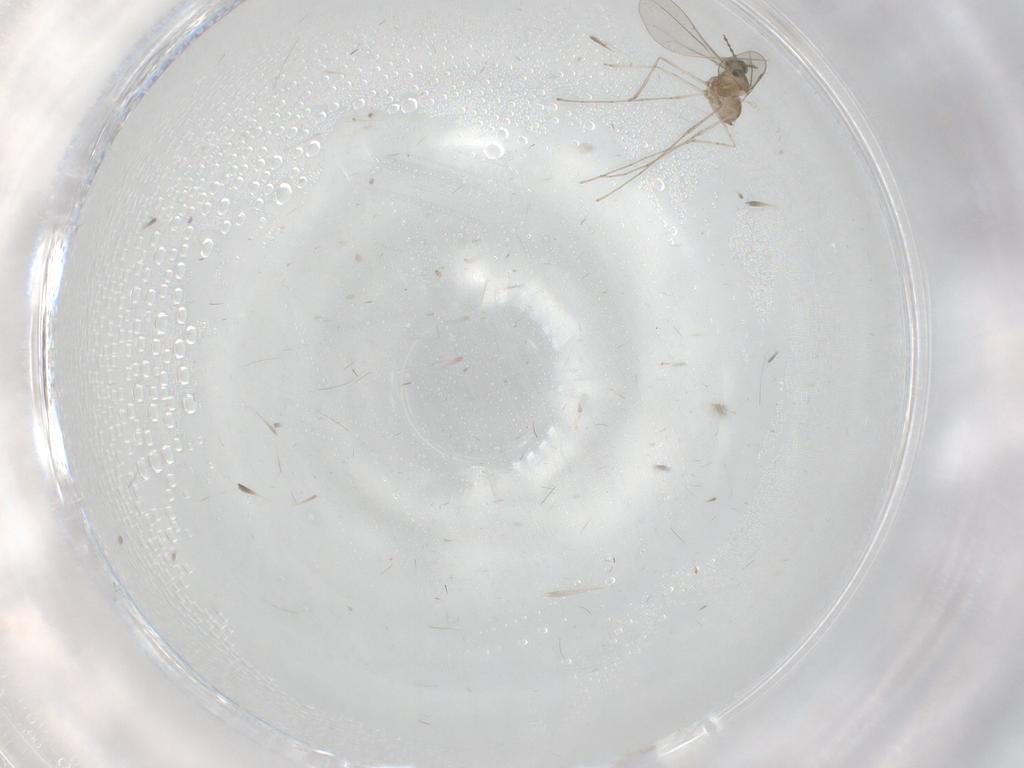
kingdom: Animalia
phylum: Arthropoda
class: Insecta
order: Diptera
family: Cecidomyiidae
